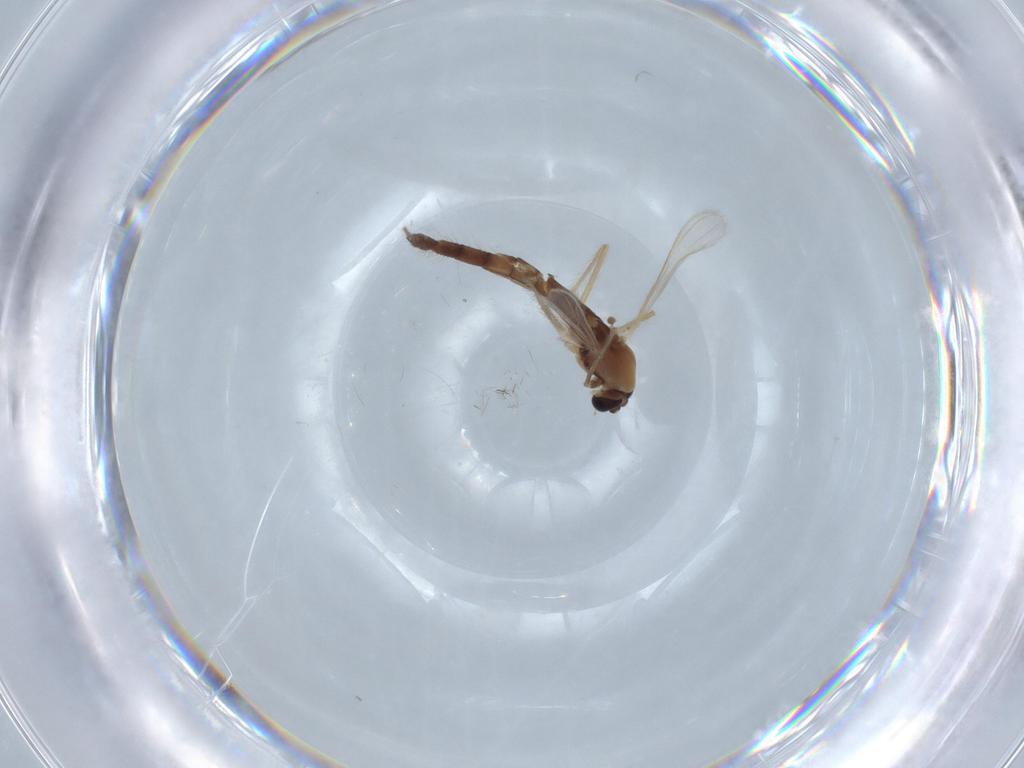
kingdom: Animalia
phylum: Arthropoda
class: Insecta
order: Diptera
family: Chironomidae
